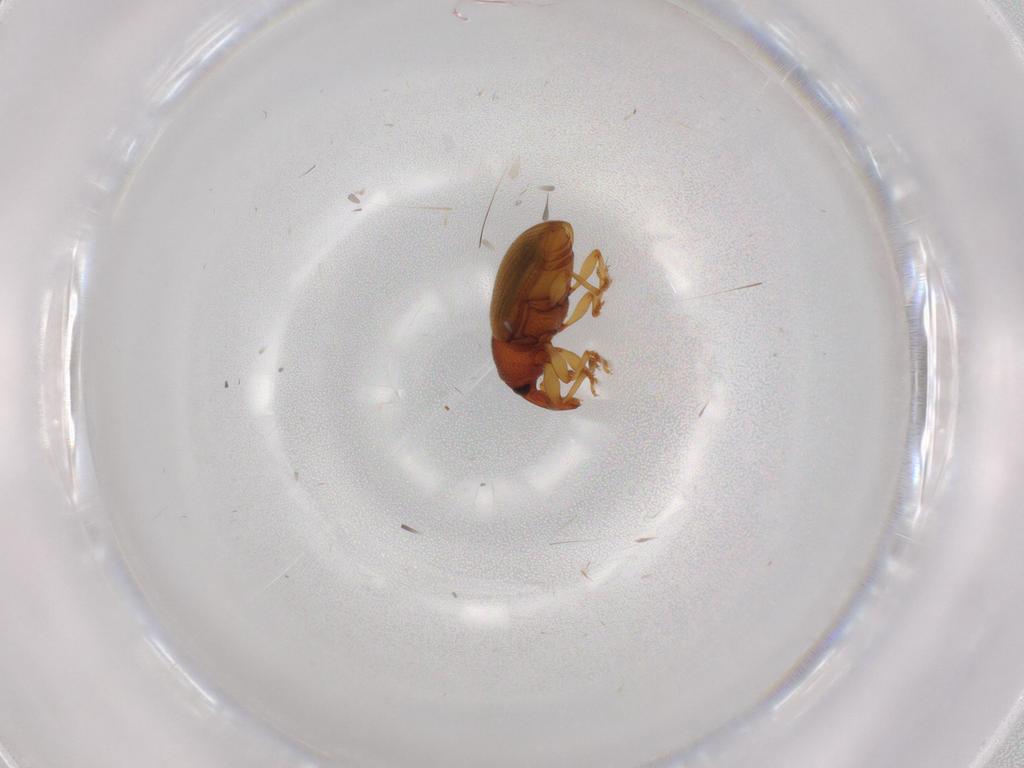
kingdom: Animalia
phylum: Arthropoda
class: Insecta
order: Coleoptera
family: Curculionidae
